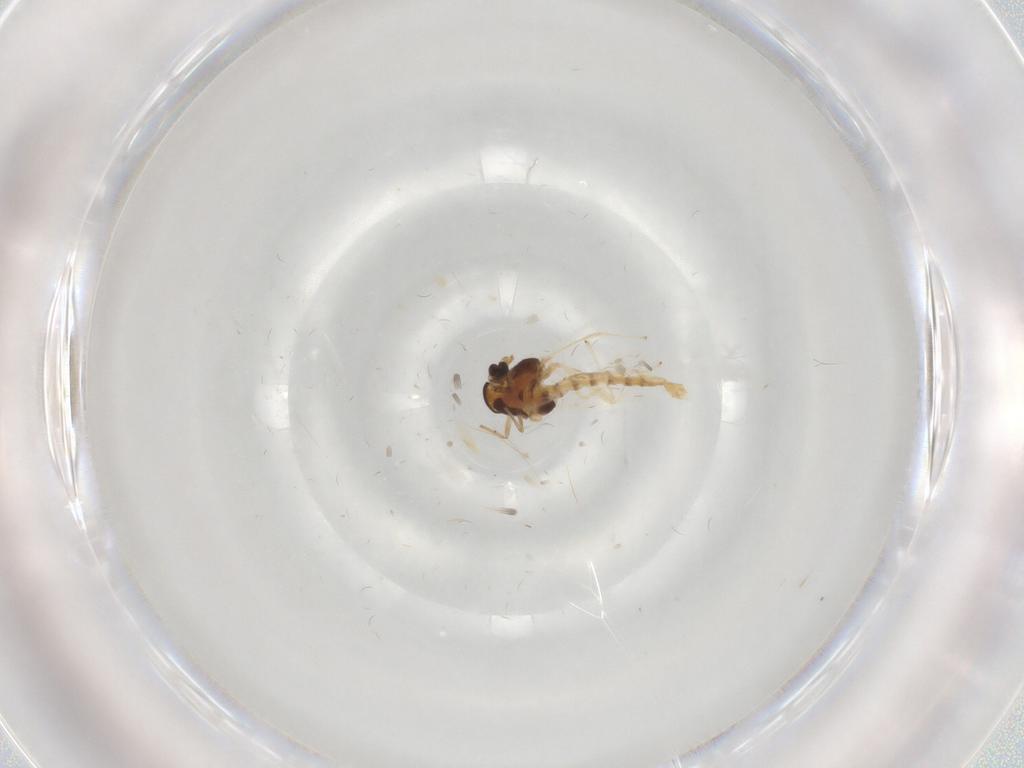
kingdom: Animalia
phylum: Arthropoda
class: Insecta
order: Diptera
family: Chironomidae
